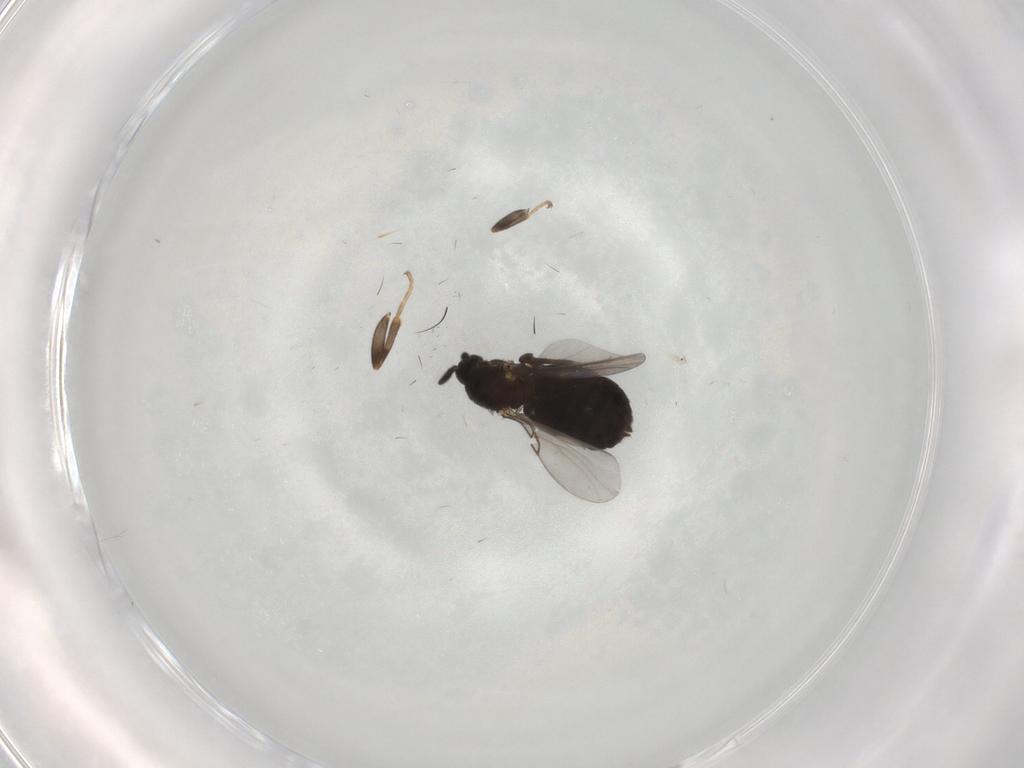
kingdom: Animalia
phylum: Arthropoda
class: Insecta
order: Diptera
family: Scatopsidae
